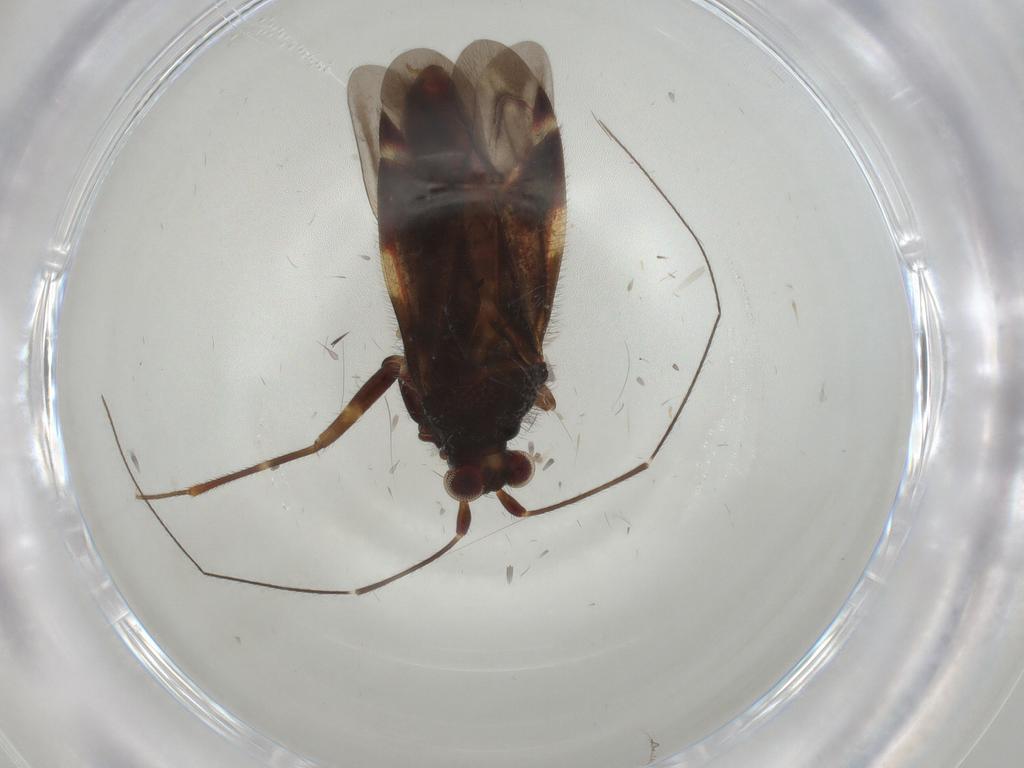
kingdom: Animalia
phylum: Arthropoda
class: Insecta
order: Hemiptera
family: Miridae
